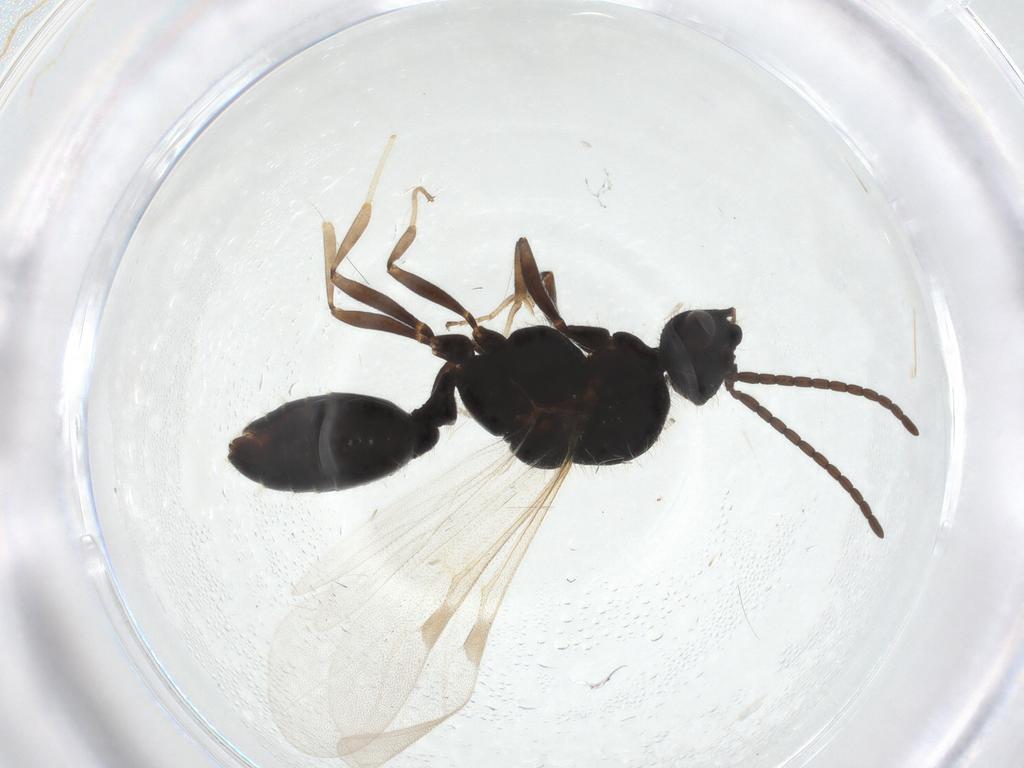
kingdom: Animalia
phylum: Arthropoda
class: Insecta
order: Hymenoptera
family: Formicidae
